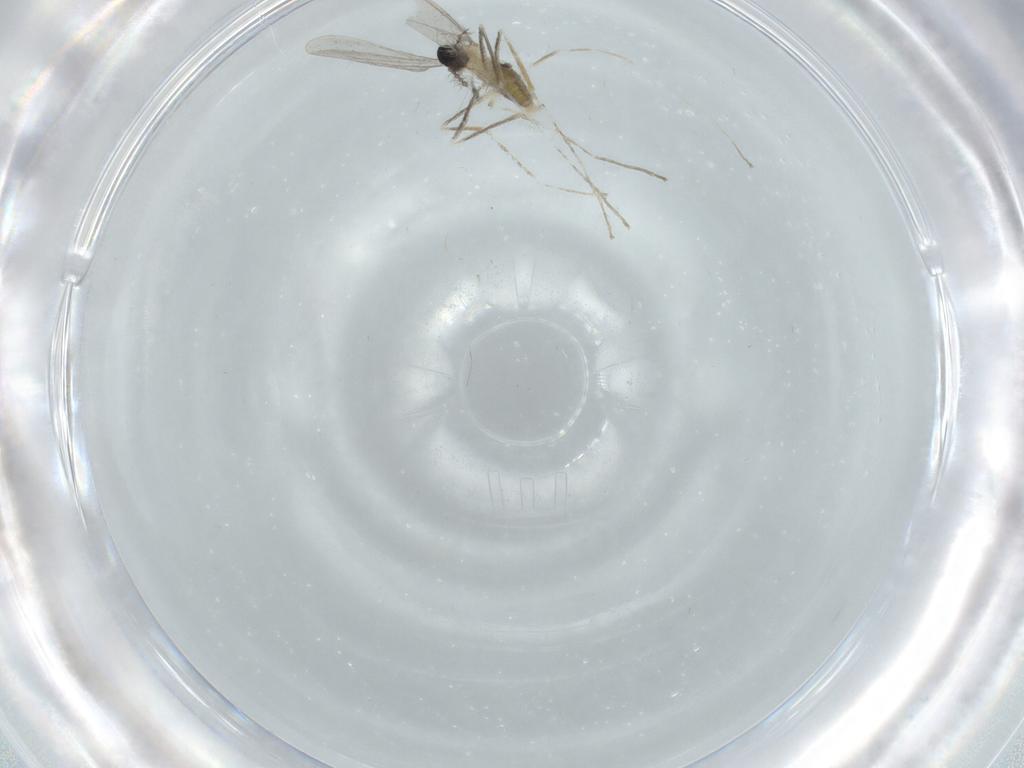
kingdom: Animalia
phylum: Arthropoda
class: Insecta
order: Diptera
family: Cecidomyiidae
